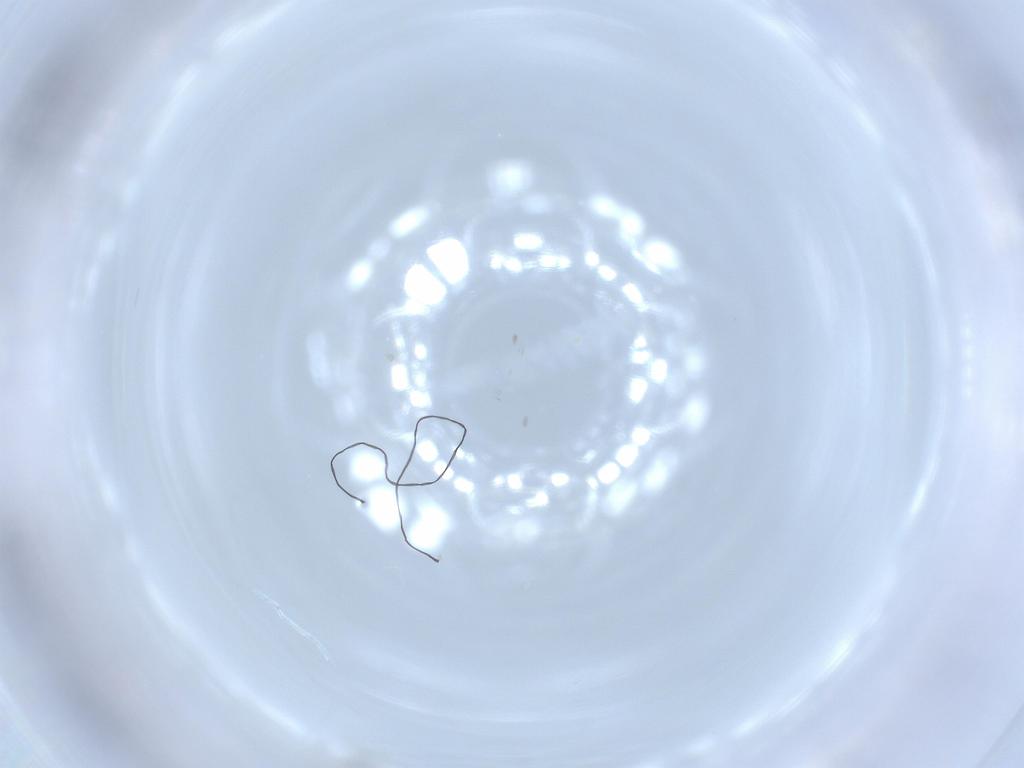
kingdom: Animalia
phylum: Arthropoda
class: Insecta
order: Diptera
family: Cecidomyiidae
